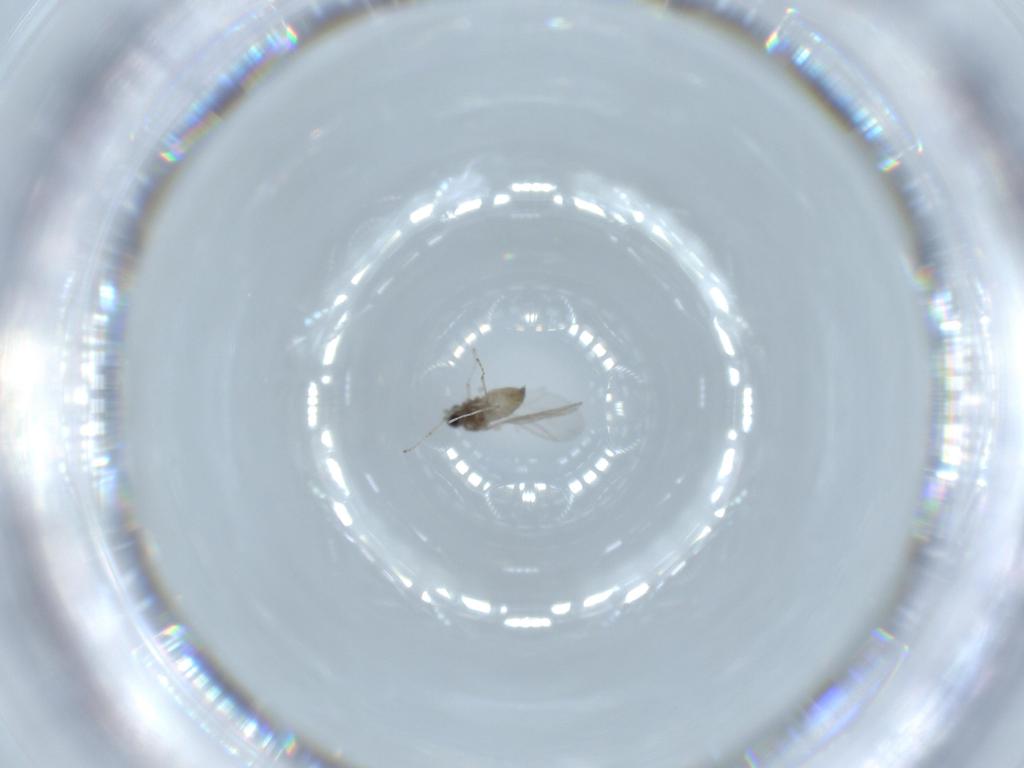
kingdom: Animalia
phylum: Arthropoda
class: Insecta
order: Diptera
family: Cecidomyiidae
